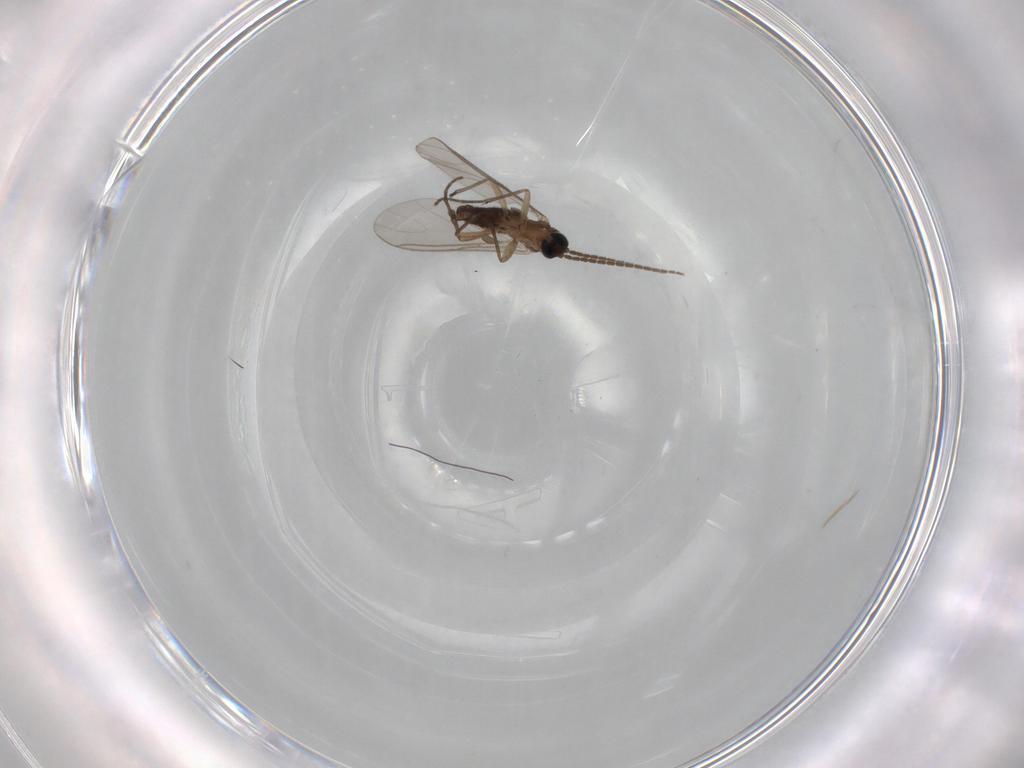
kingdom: Animalia
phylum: Arthropoda
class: Insecta
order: Diptera
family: Sciaridae
